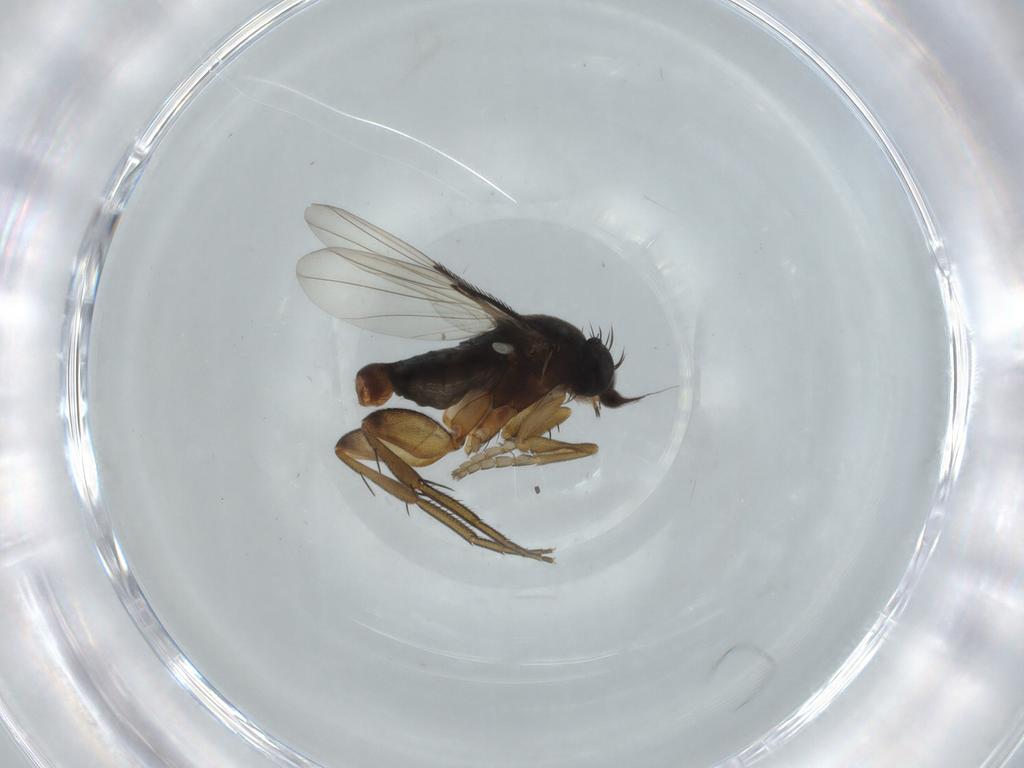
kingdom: Animalia
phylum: Arthropoda
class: Insecta
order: Diptera
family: Phoridae
